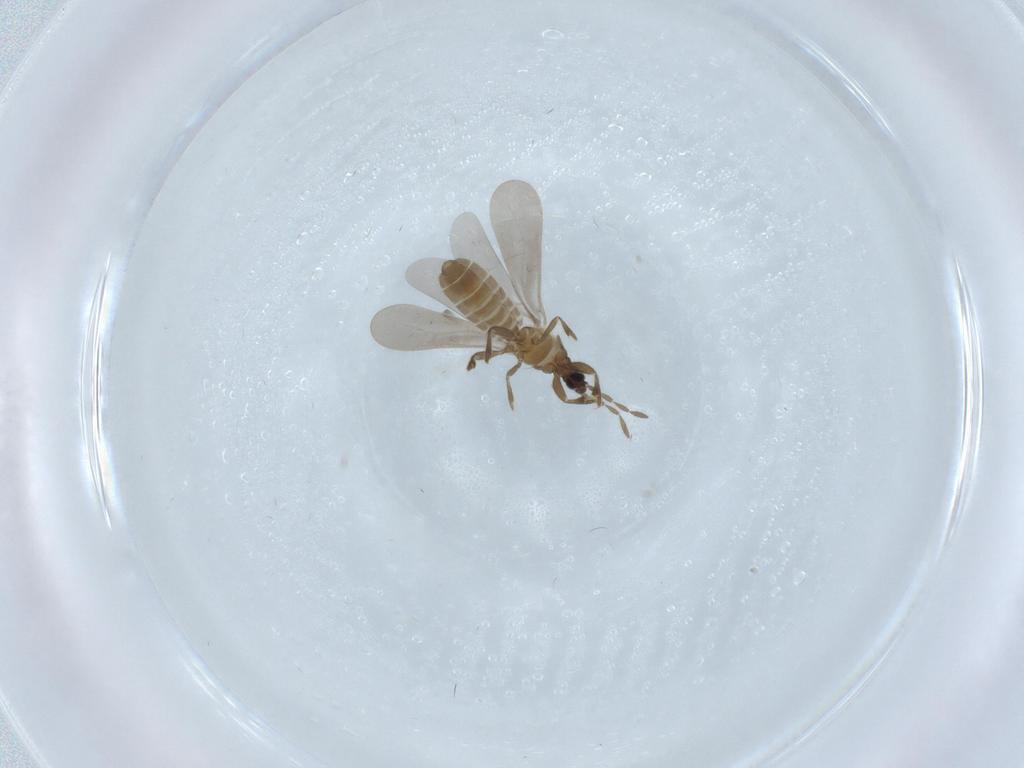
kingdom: Animalia
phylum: Arthropoda
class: Insecta
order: Hemiptera
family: Enicocephalidae
